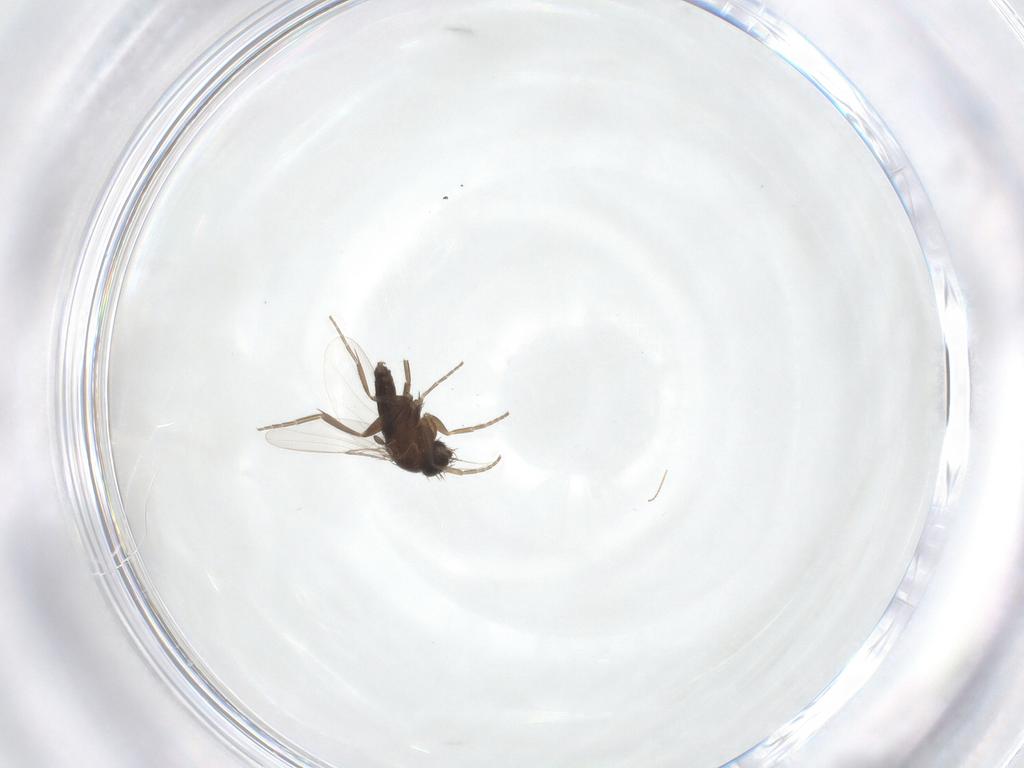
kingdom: Animalia
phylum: Arthropoda
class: Insecta
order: Diptera
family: Phoridae
